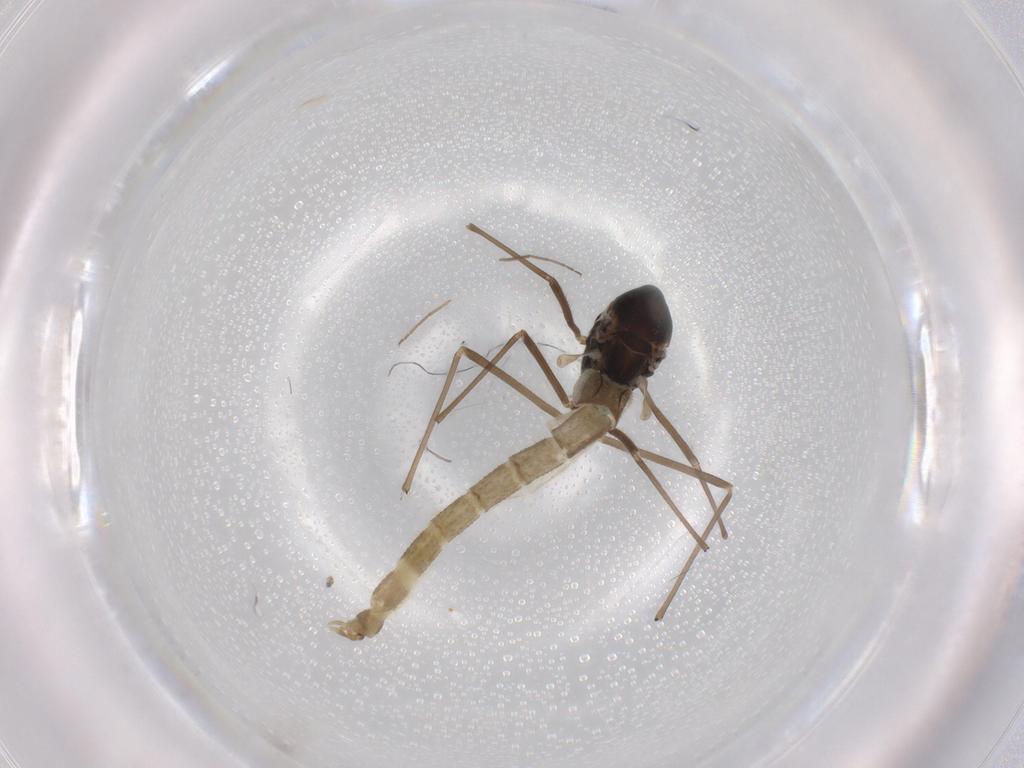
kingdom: Animalia
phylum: Arthropoda
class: Insecta
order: Diptera
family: Chironomidae
